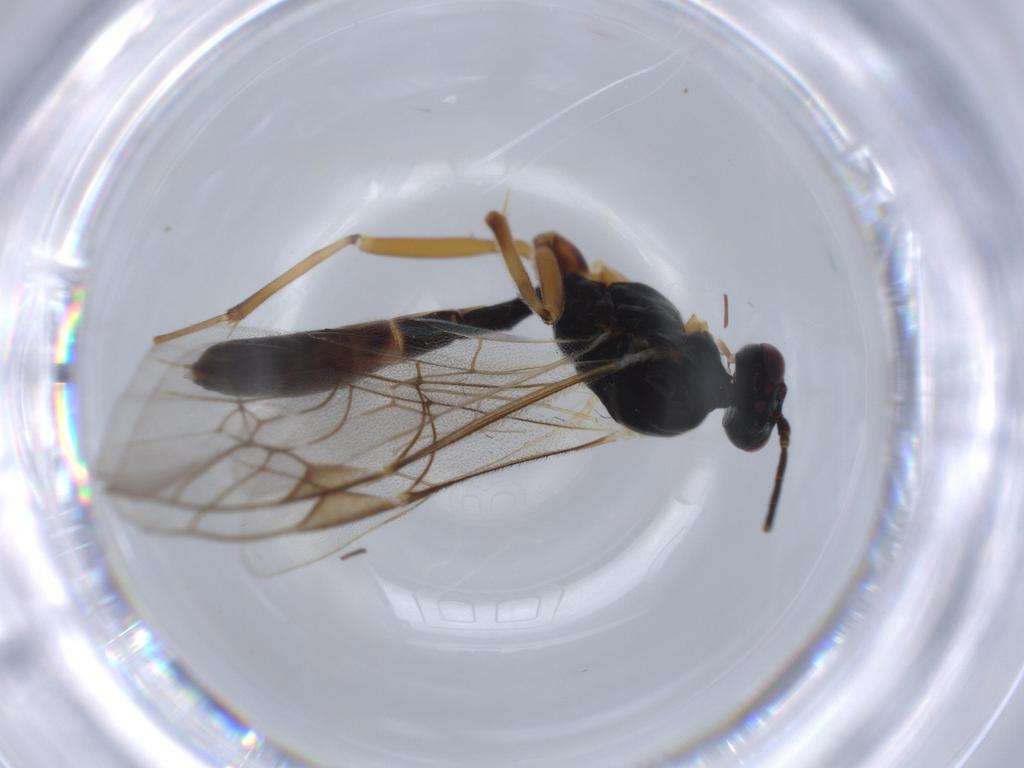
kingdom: Animalia
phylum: Arthropoda
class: Insecta
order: Hymenoptera
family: Ichneumonidae
